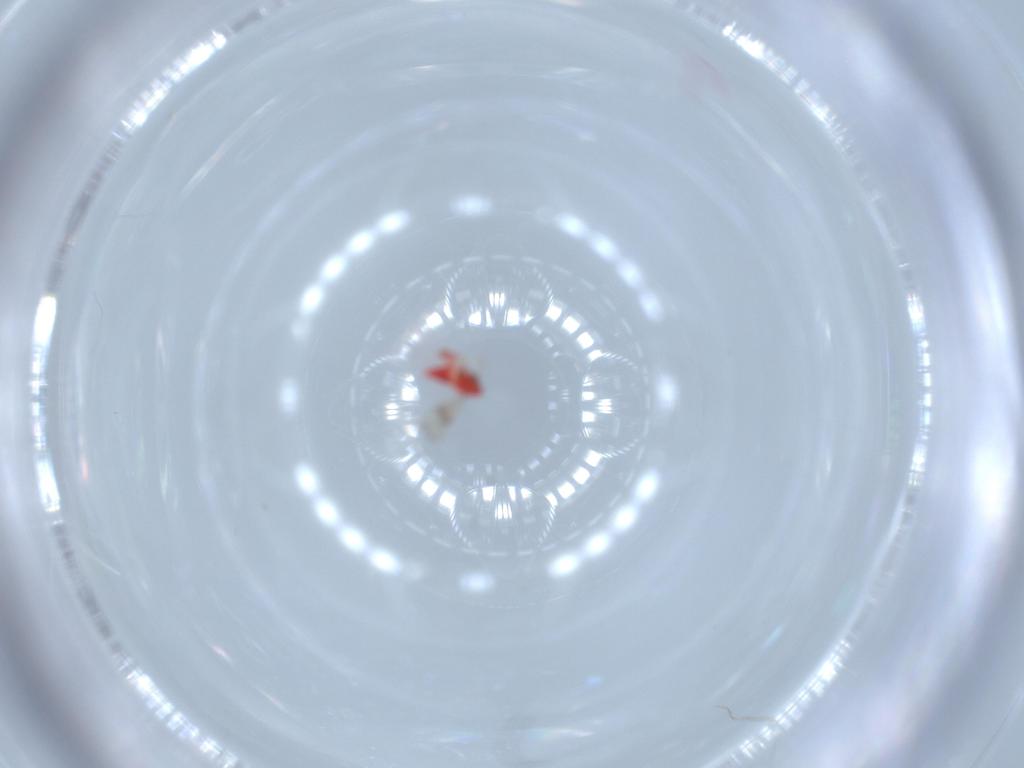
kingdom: Animalia
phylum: Arthropoda
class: Insecta
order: Hymenoptera
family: Trichogrammatidae
